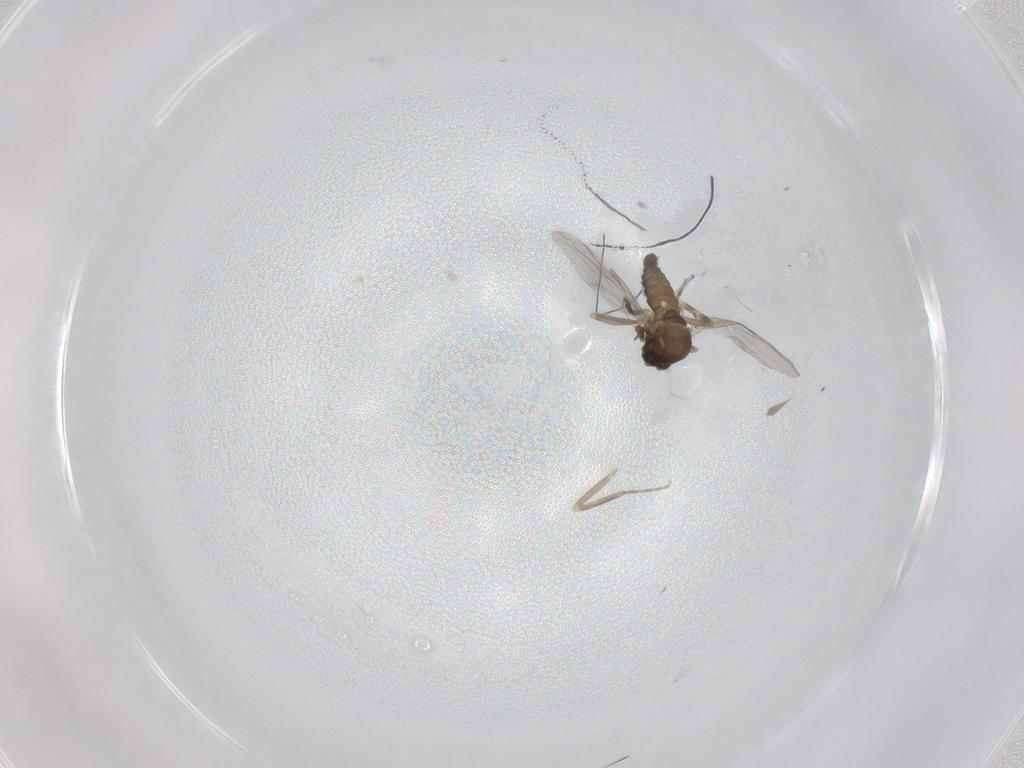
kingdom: Animalia
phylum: Arthropoda
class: Insecta
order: Diptera
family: Ceratopogonidae
